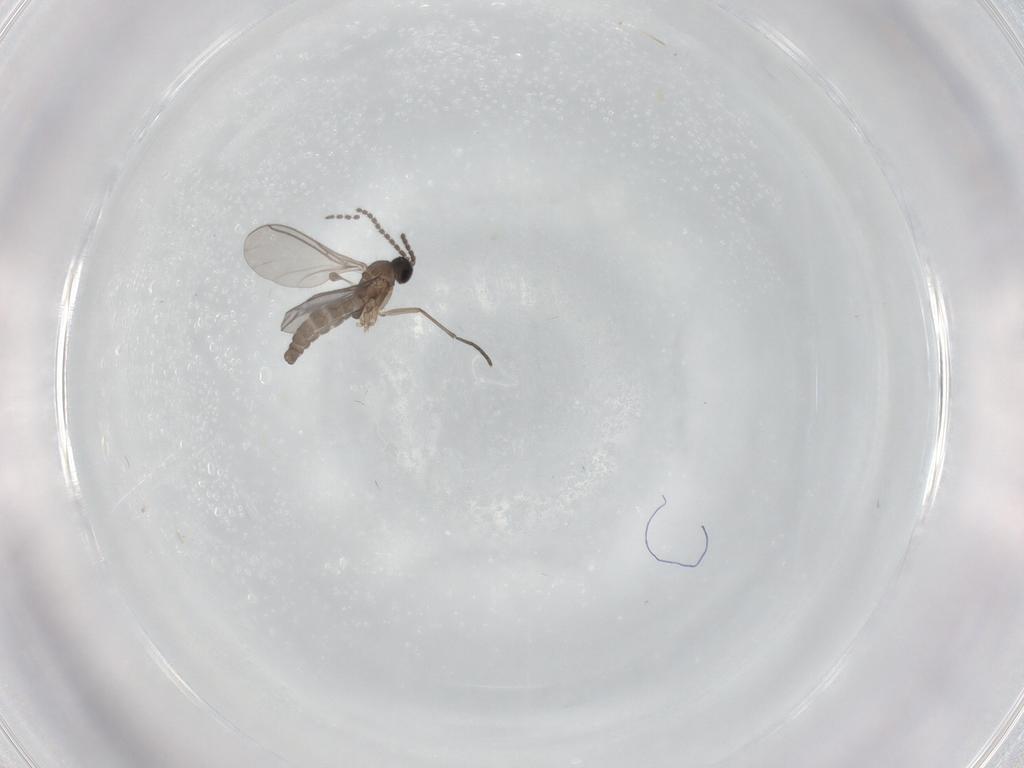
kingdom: Animalia
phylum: Arthropoda
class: Insecta
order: Diptera
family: Sciaridae
